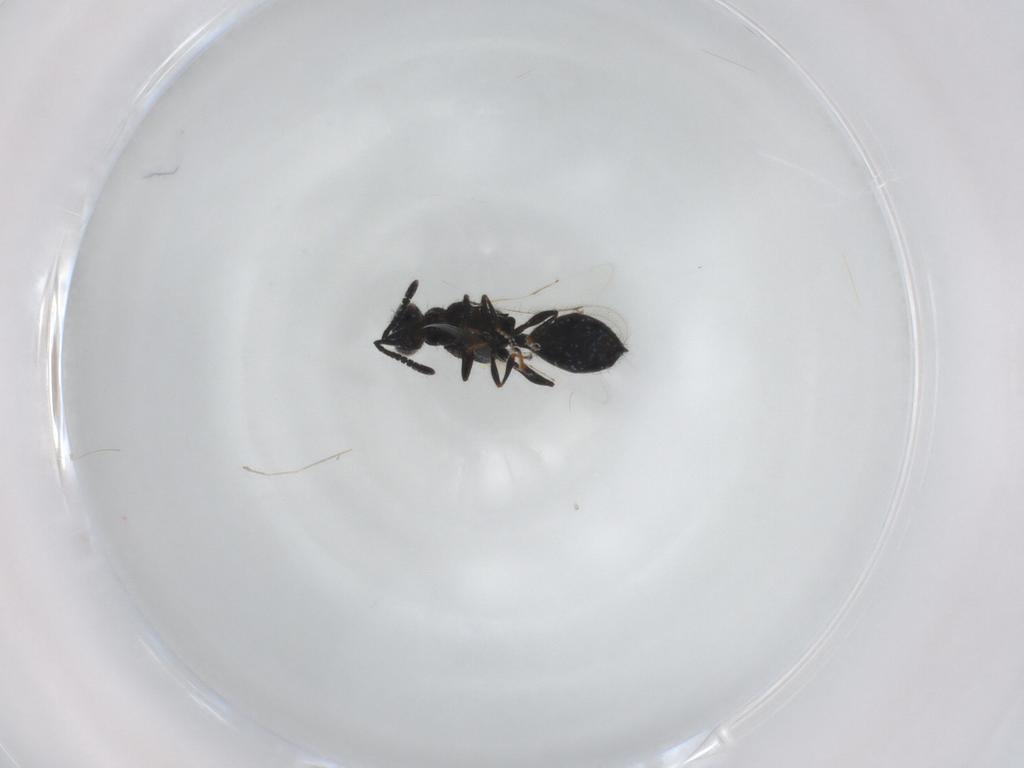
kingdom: Animalia
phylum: Arthropoda
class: Insecta
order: Hymenoptera
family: Spalangiidae
